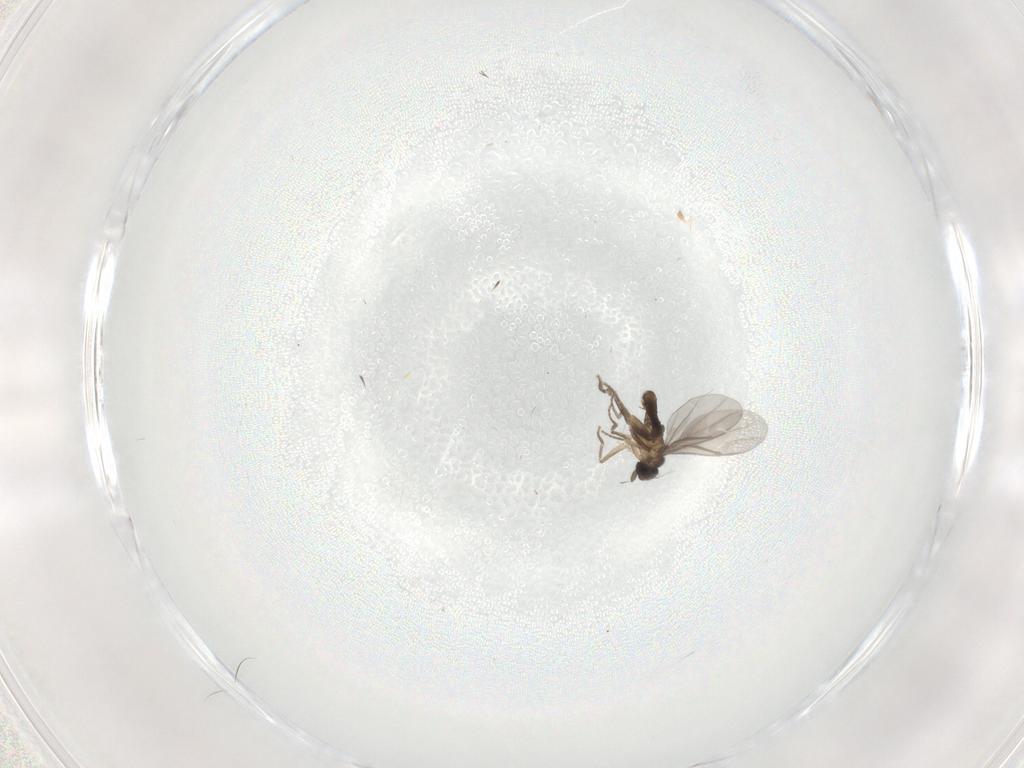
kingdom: Animalia
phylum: Arthropoda
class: Insecta
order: Diptera
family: Cecidomyiidae
